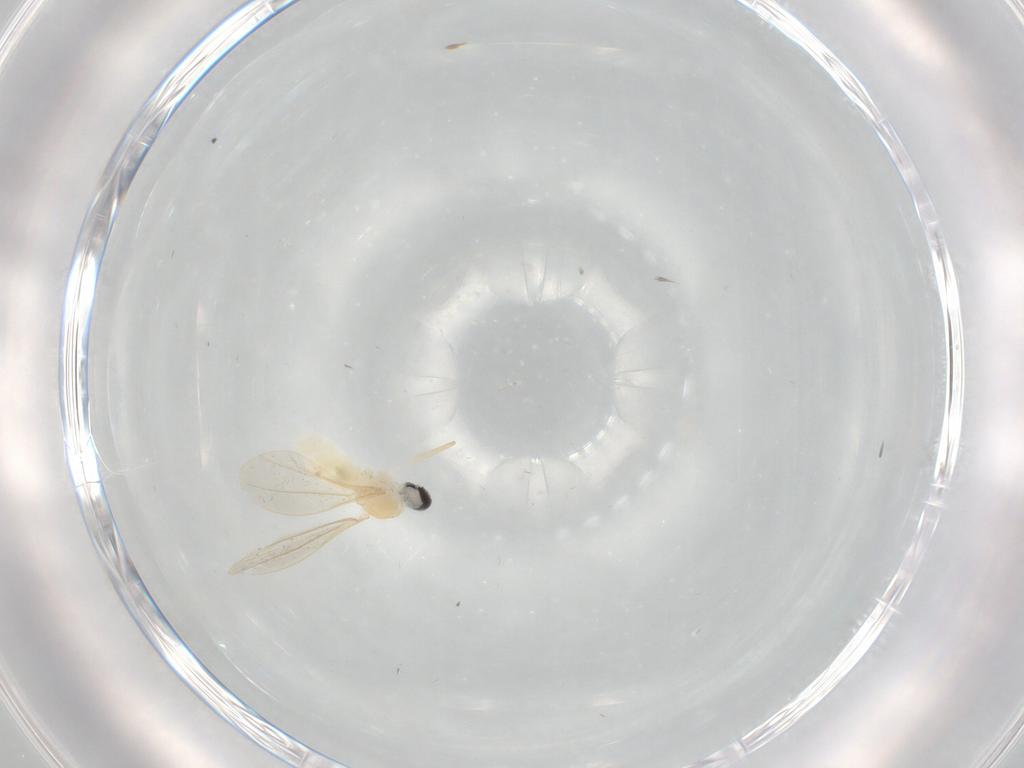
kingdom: Animalia
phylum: Arthropoda
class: Insecta
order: Diptera
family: Cecidomyiidae
